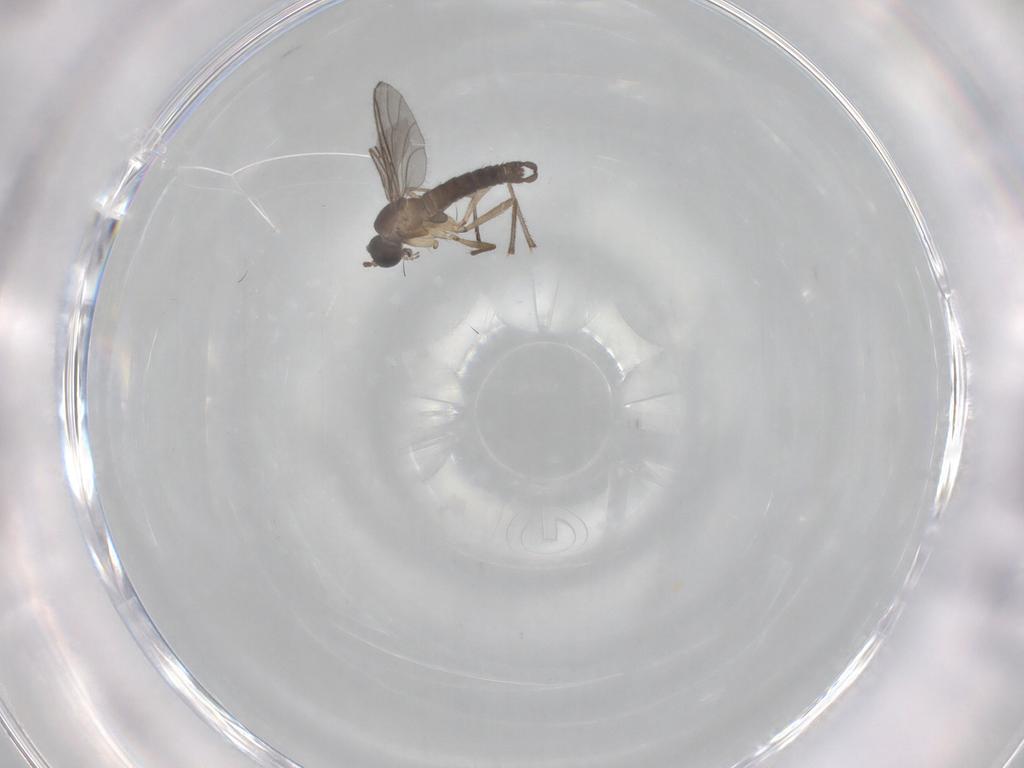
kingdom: Animalia
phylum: Arthropoda
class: Insecta
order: Diptera
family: Sciaridae
